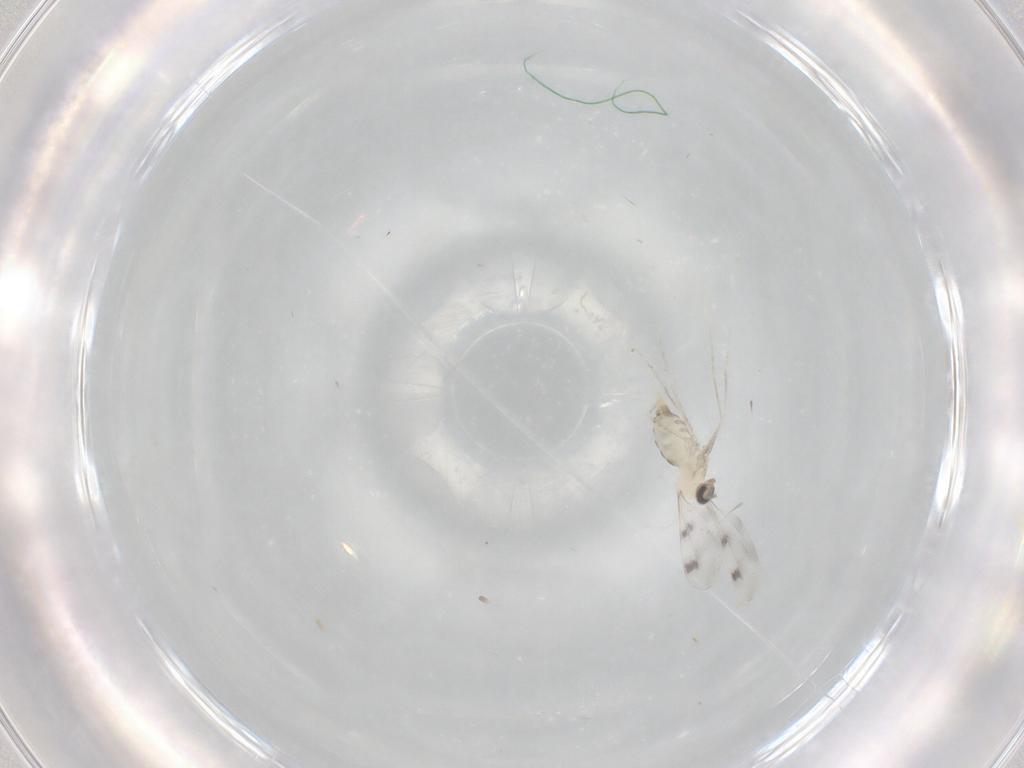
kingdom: Animalia
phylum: Arthropoda
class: Insecta
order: Diptera
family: Cecidomyiidae
